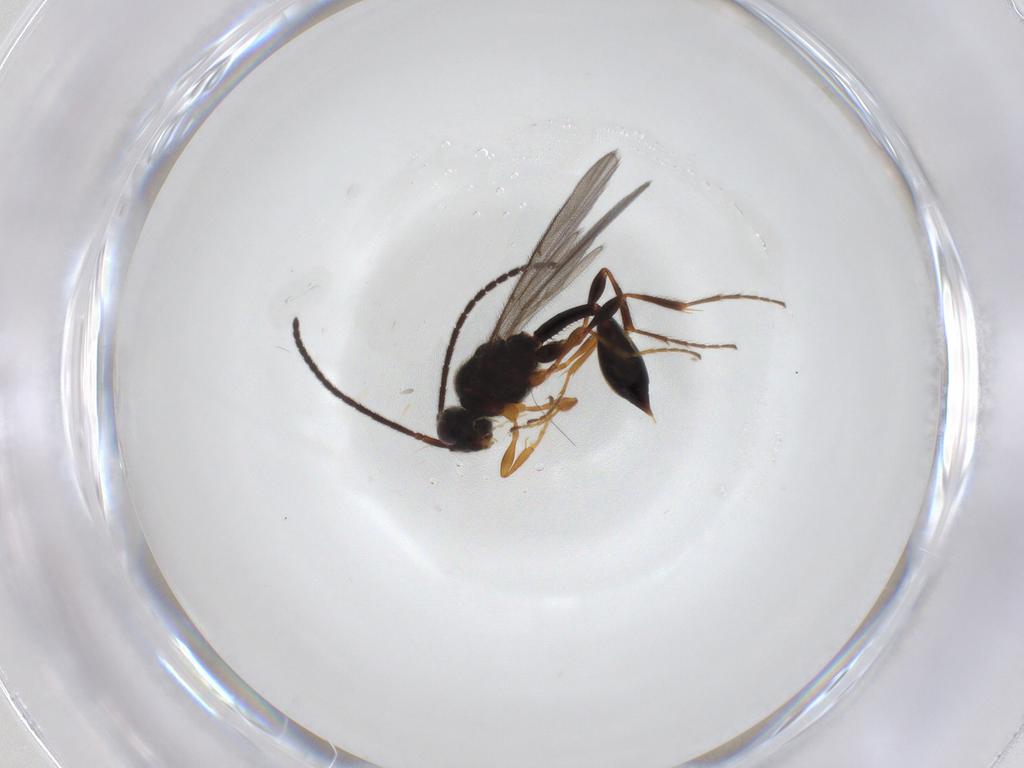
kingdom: Animalia
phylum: Arthropoda
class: Insecta
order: Hymenoptera
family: Diapriidae
